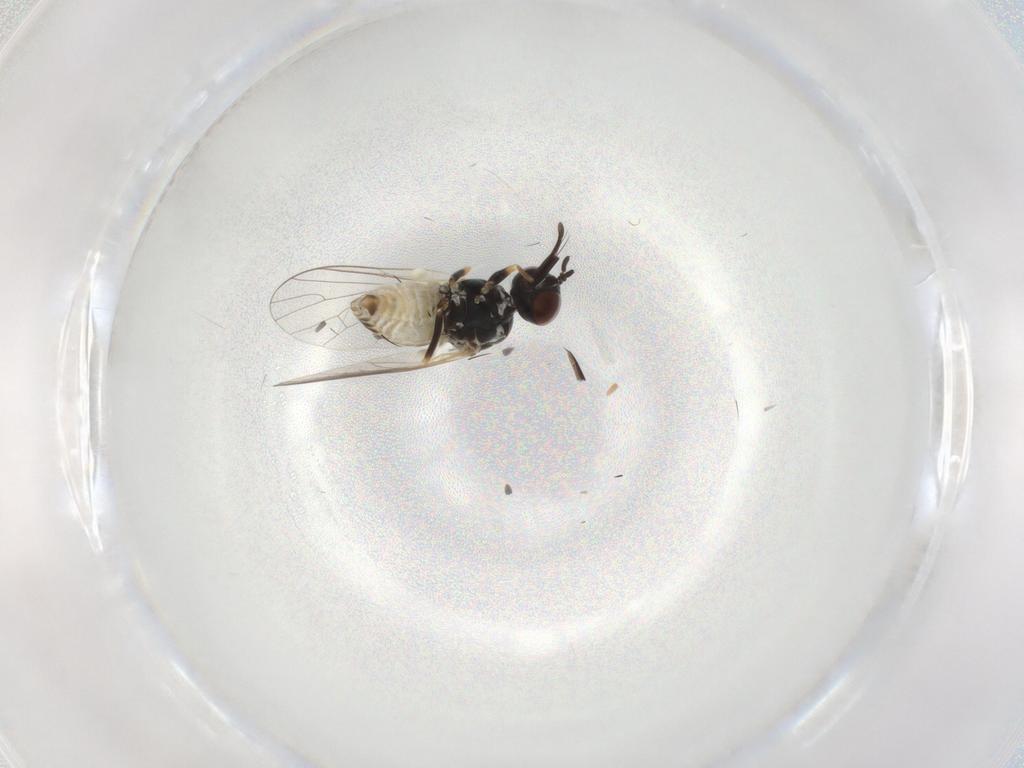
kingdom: Animalia
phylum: Arthropoda
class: Insecta
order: Diptera
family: Bombyliidae
